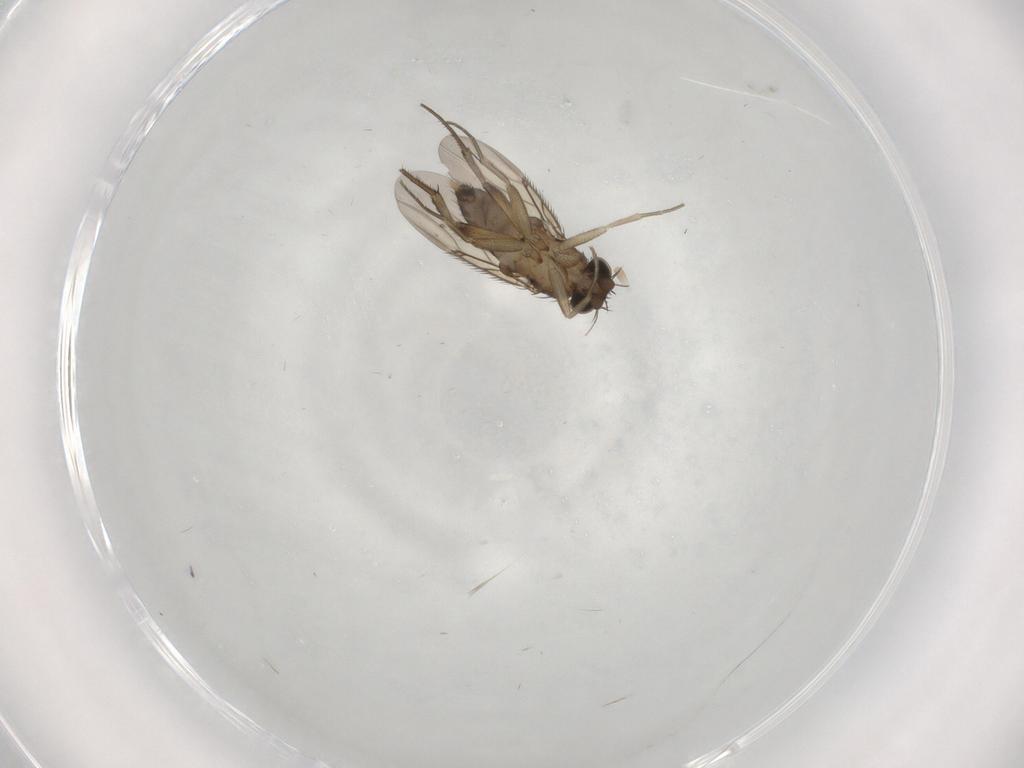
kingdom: Animalia
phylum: Arthropoda
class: Insecta
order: Diptera
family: Phoridae
